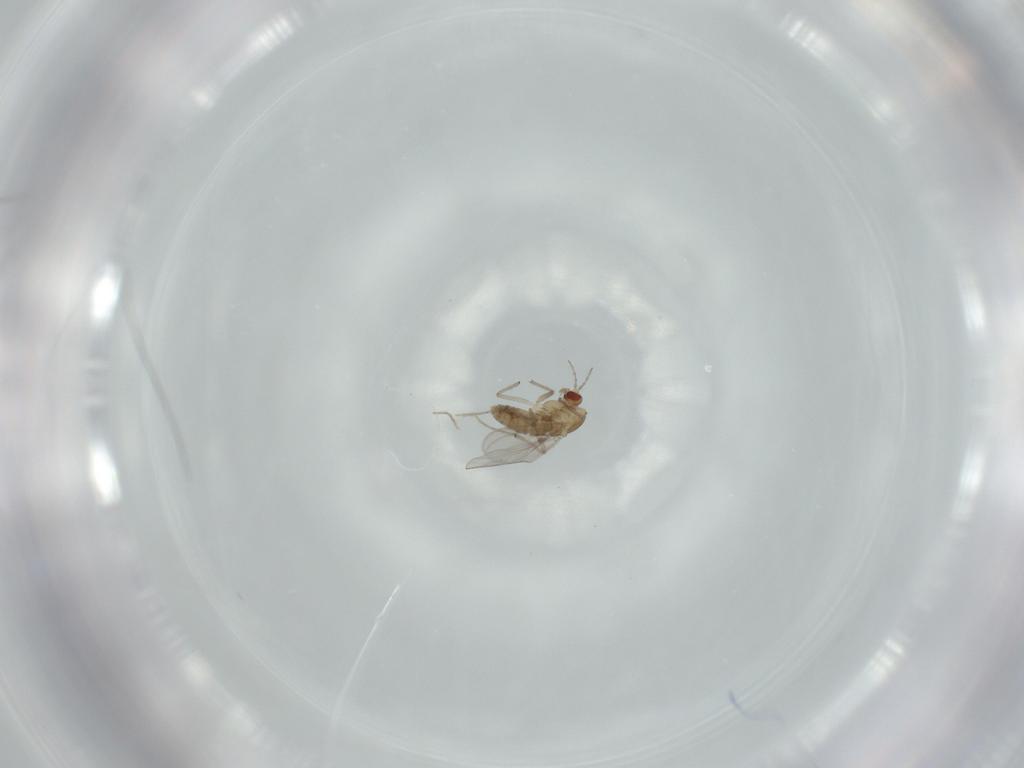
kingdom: Animalia
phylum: Arthropoda
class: Insecta
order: Diptera
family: Chironomidae
